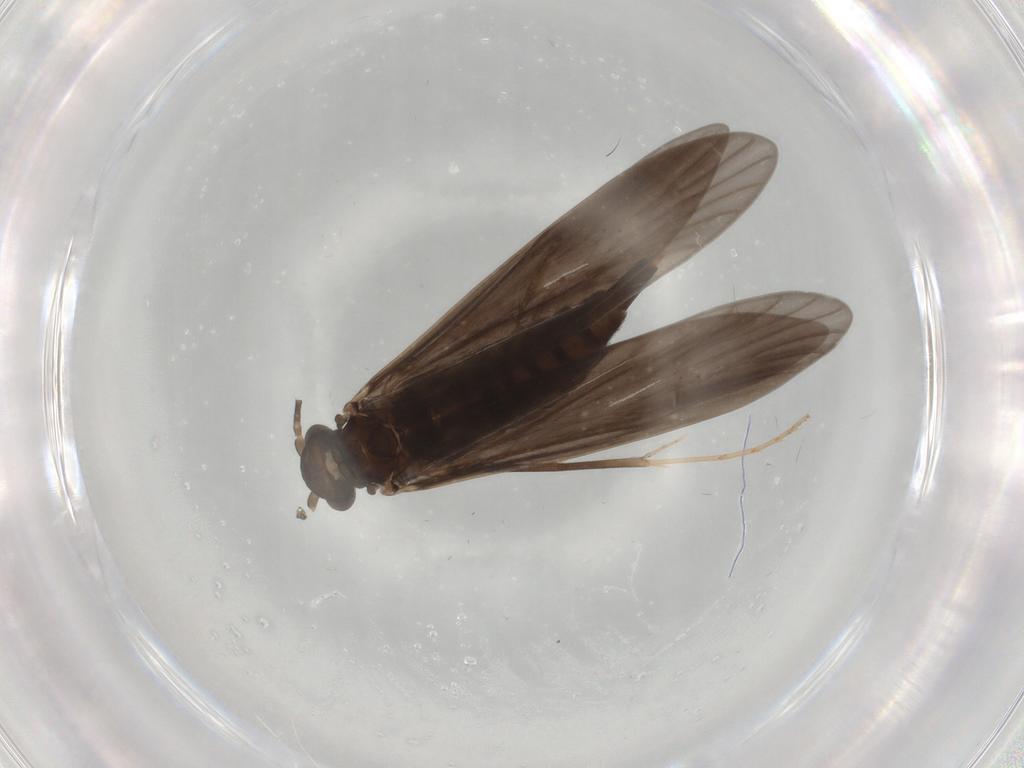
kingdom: Animalia
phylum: Arthropoda
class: Insecta
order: Trichoptera
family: Xiphocentronidae
